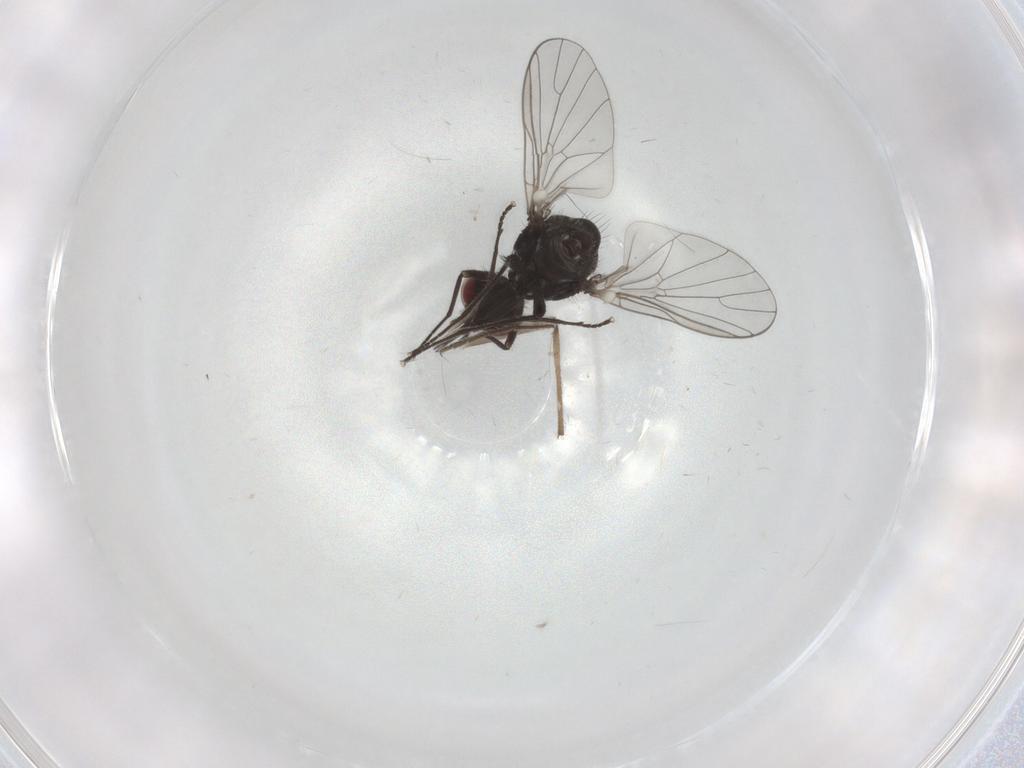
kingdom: Animalia
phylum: Arthropoda
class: Insecta
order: Diptera
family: Bombyliidae
